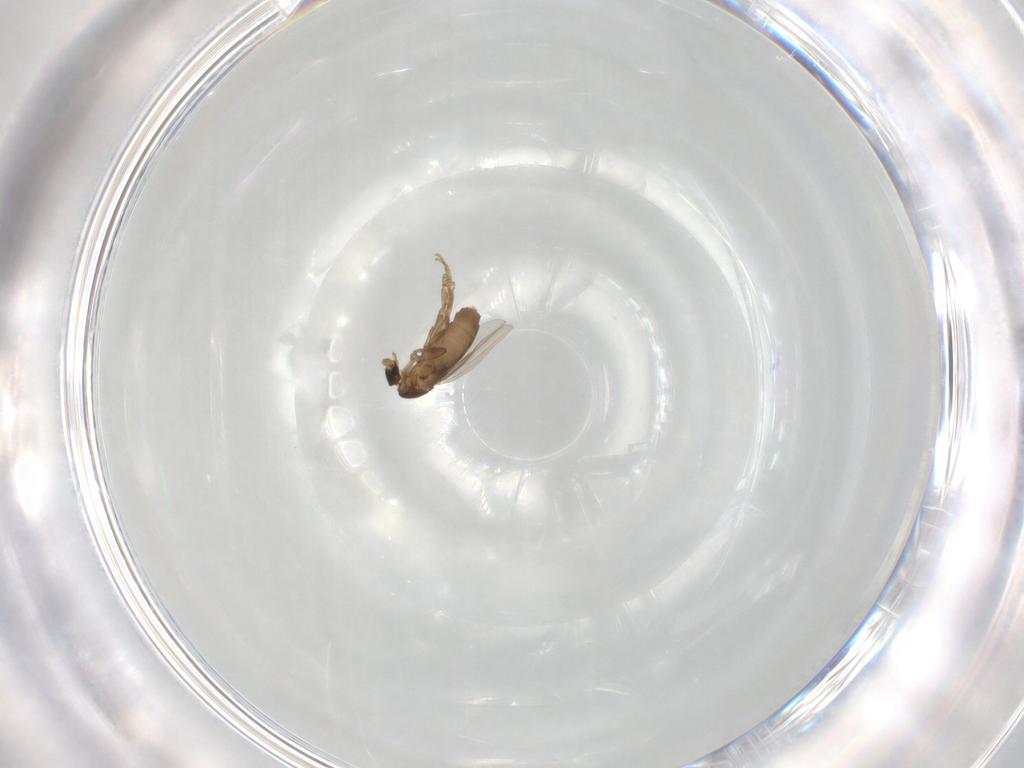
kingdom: Animalia
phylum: Arthropoda
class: Insecta
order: Diptera
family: Phoridae
